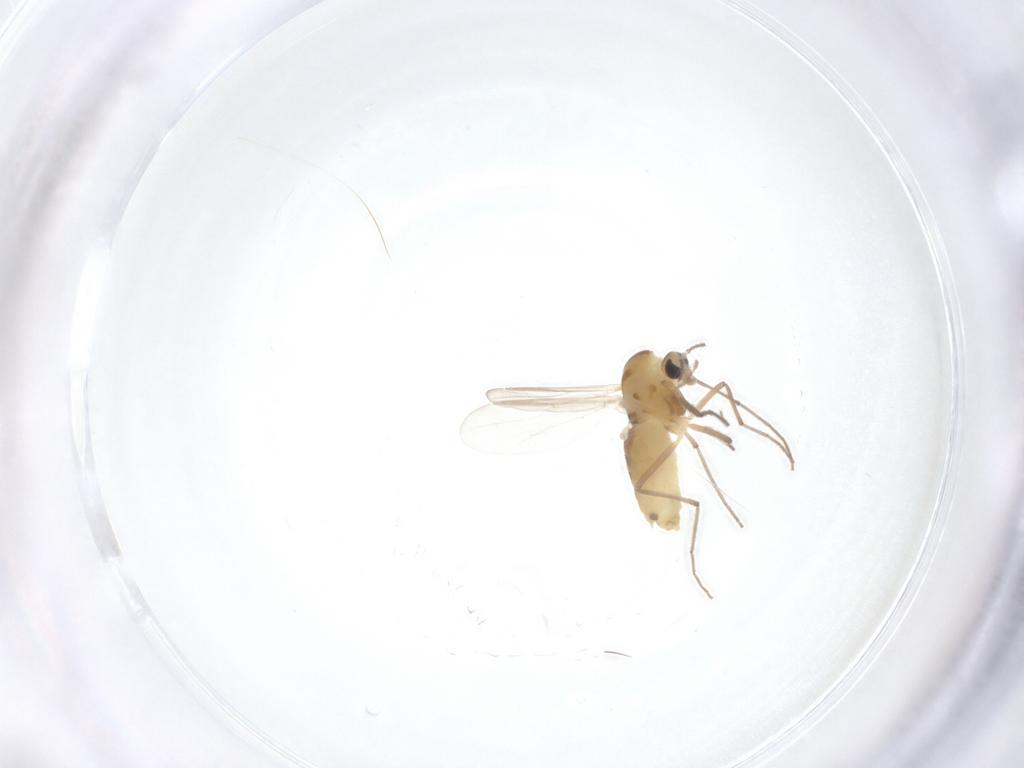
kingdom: Animalia
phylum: Arthropoda
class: Insecta
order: Diptera
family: Chironomidae
